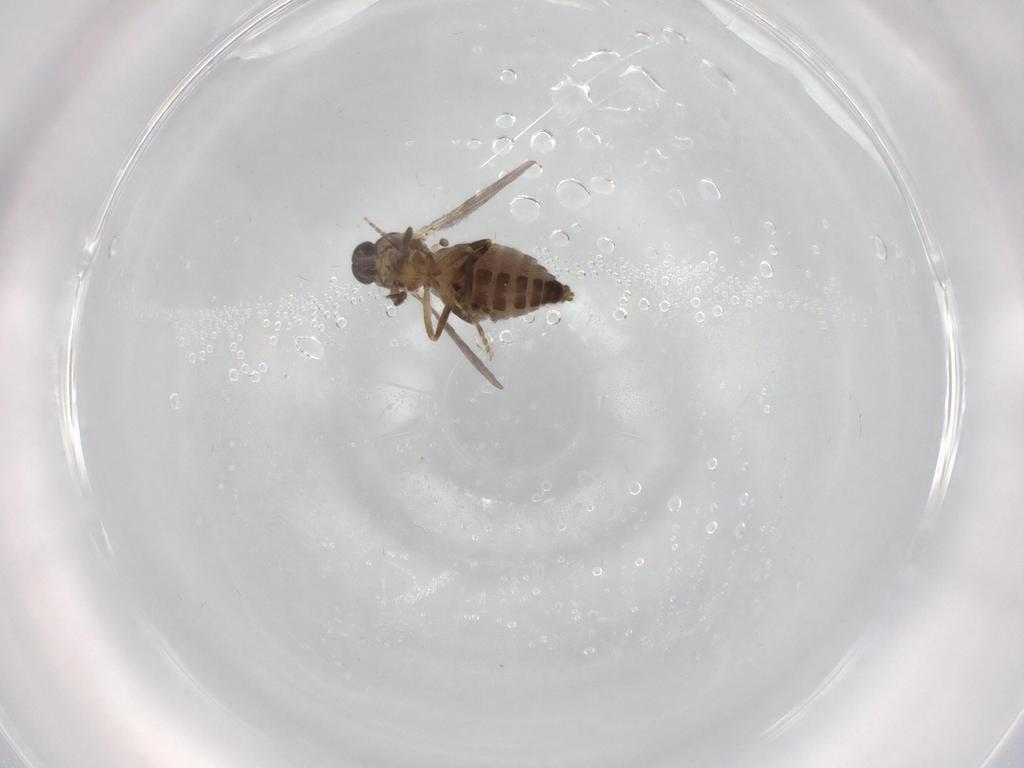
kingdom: Animalia
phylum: Arthropoda
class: Insecta
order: Diptera
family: Ceratopogonidae
